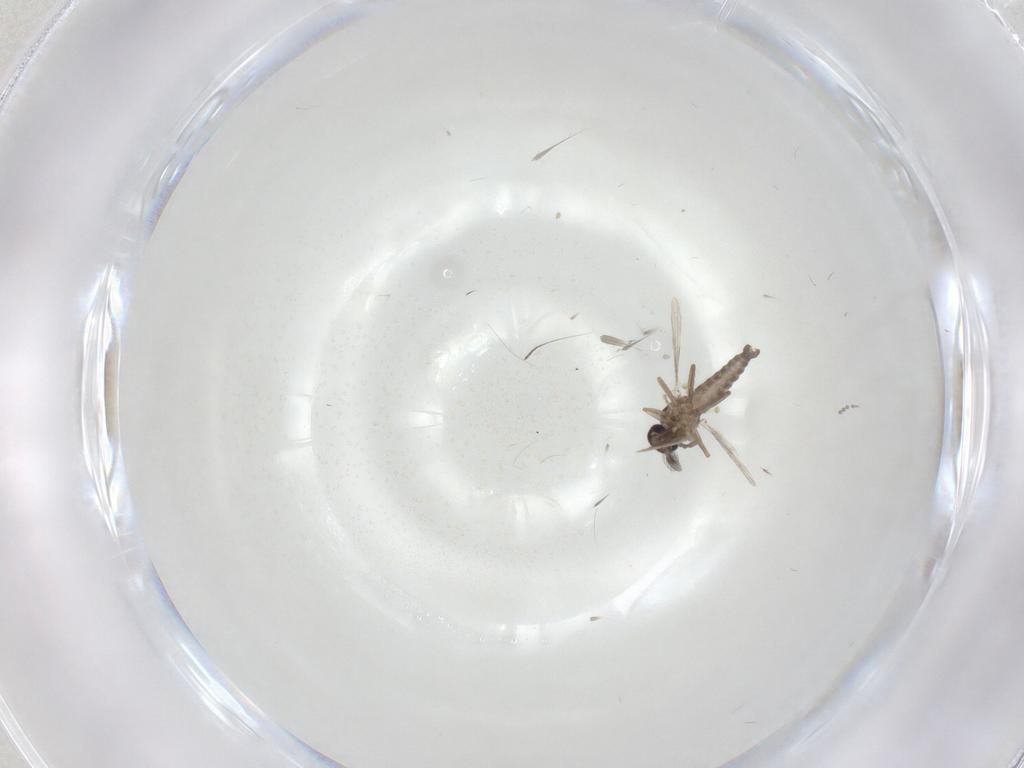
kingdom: Animalia
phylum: Arthropoda
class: Insecta
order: Diptera
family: Ceratopogonidae
